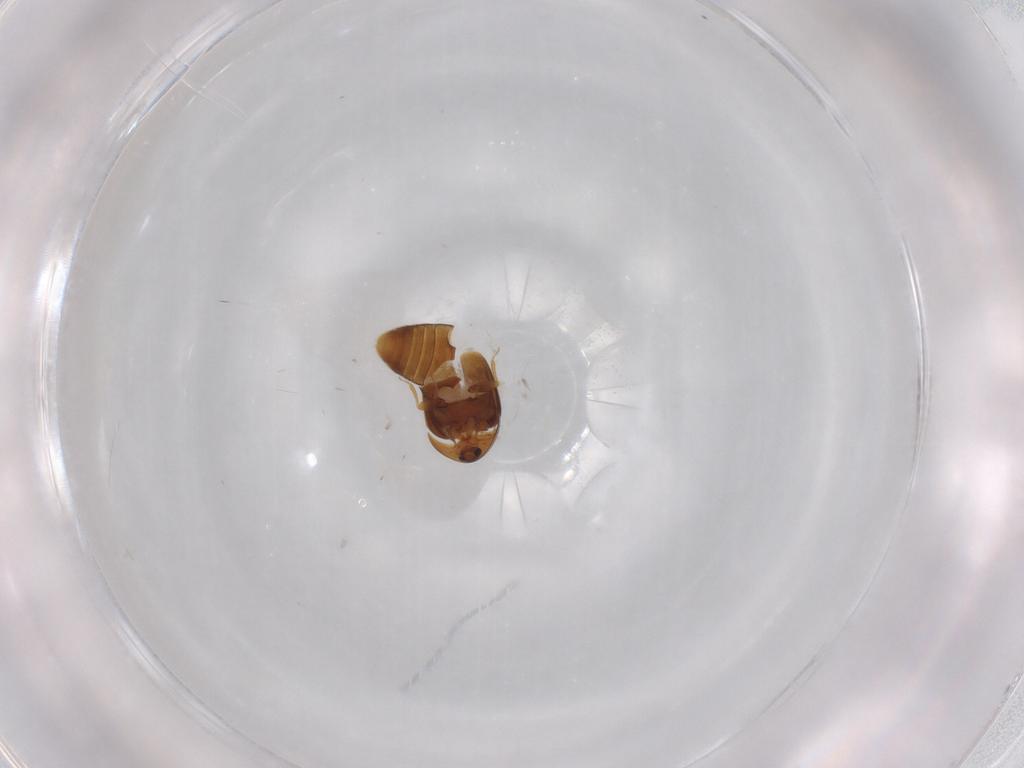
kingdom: Animalia
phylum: Arthropoda
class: Insecta
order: Coleoptera
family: Corylophidae
